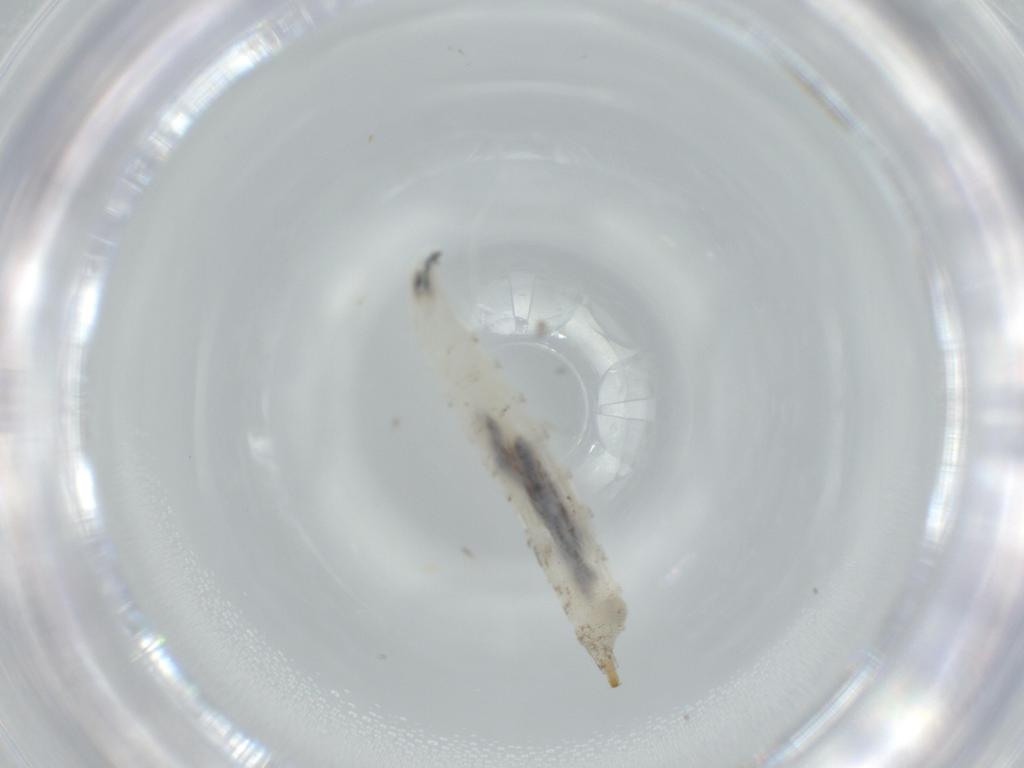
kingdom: Animalia
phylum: Arthropoda
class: Insecta
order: Diptera
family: Drosophilidae
